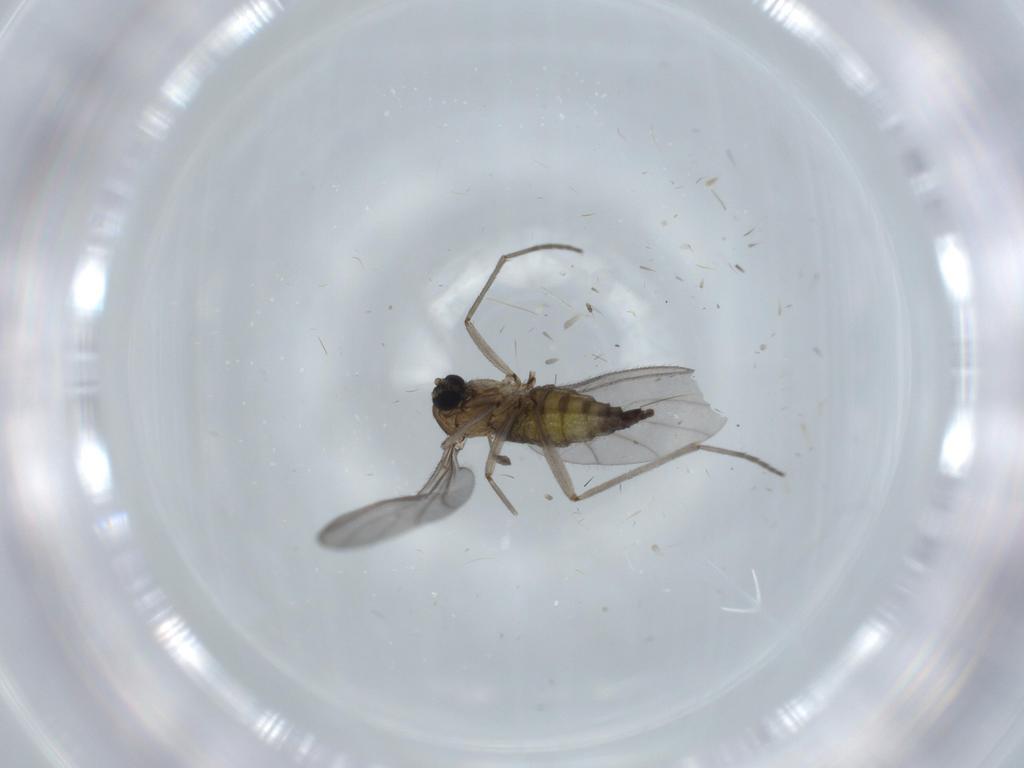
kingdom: Animalia
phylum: Arthropoda
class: Insecta
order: Diptera
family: Sciaridae
